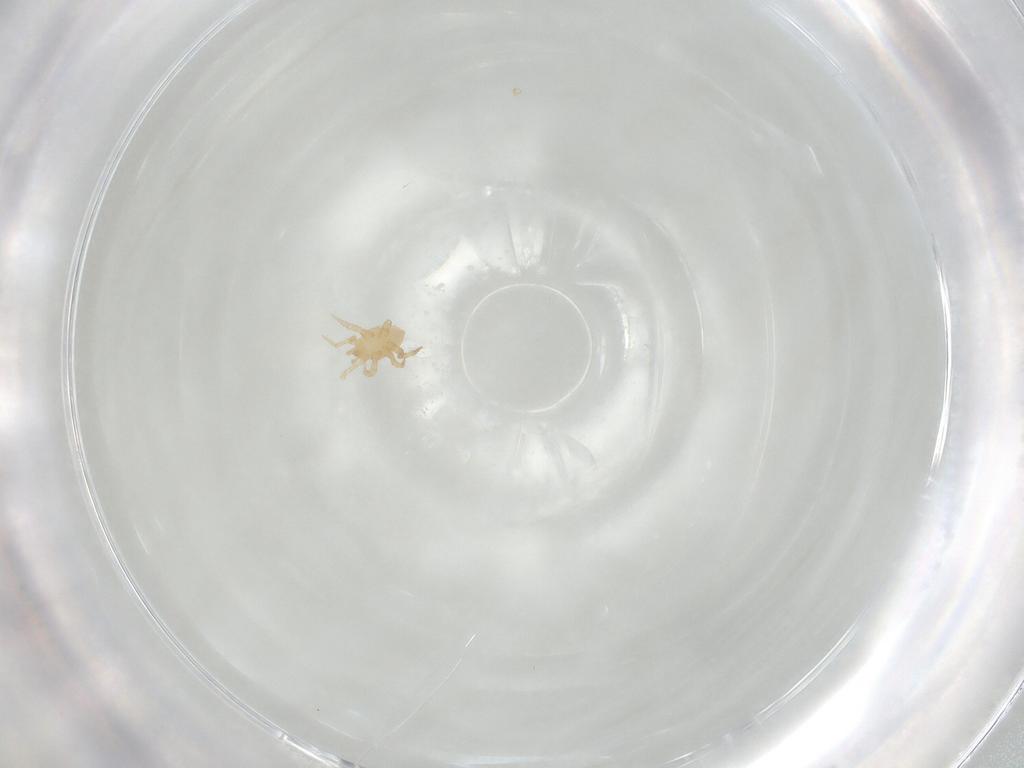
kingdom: Animalia
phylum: Arthropoda
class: Arachnida
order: Mesostigmata
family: Parasitidae
